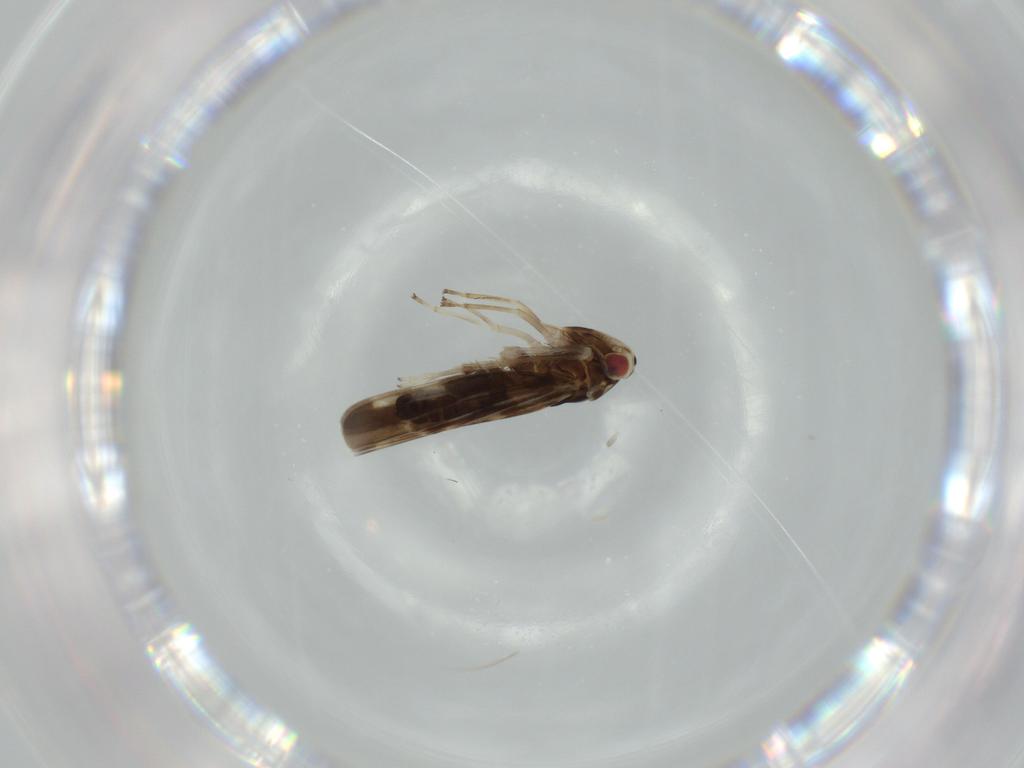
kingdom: Animalia
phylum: Arthropoda
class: Insecta
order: Hemiptera
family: Cicadellidae
